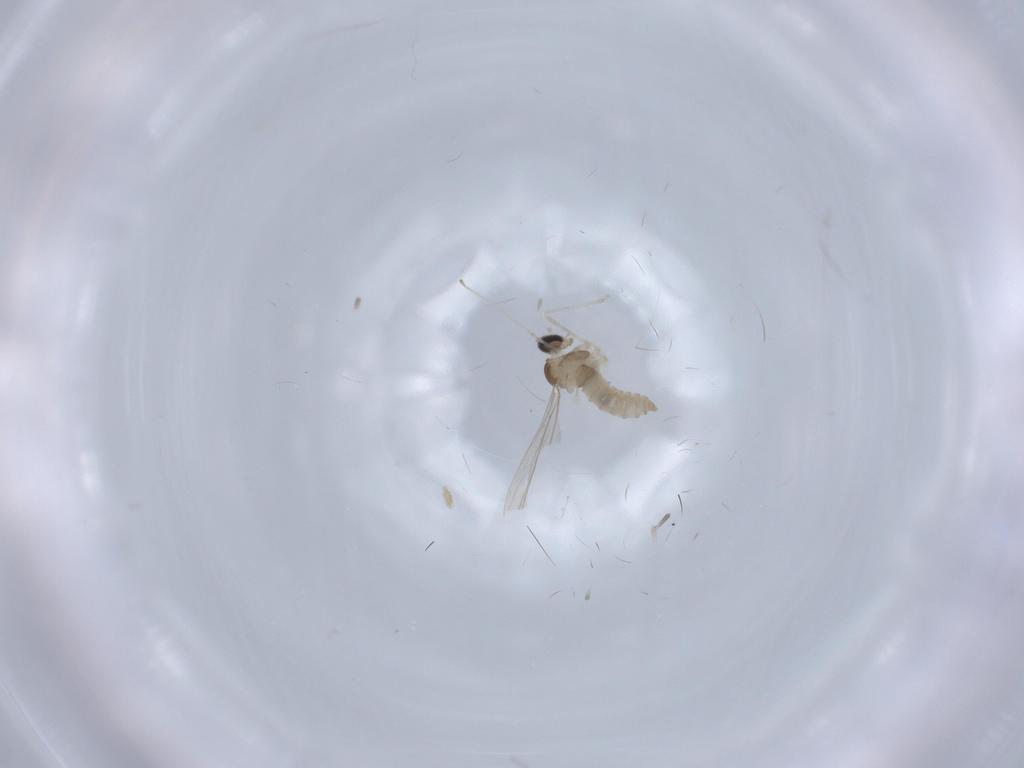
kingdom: Animalia
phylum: Arthropoda
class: Insecta
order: Diptera
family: Cecidomyiidae
